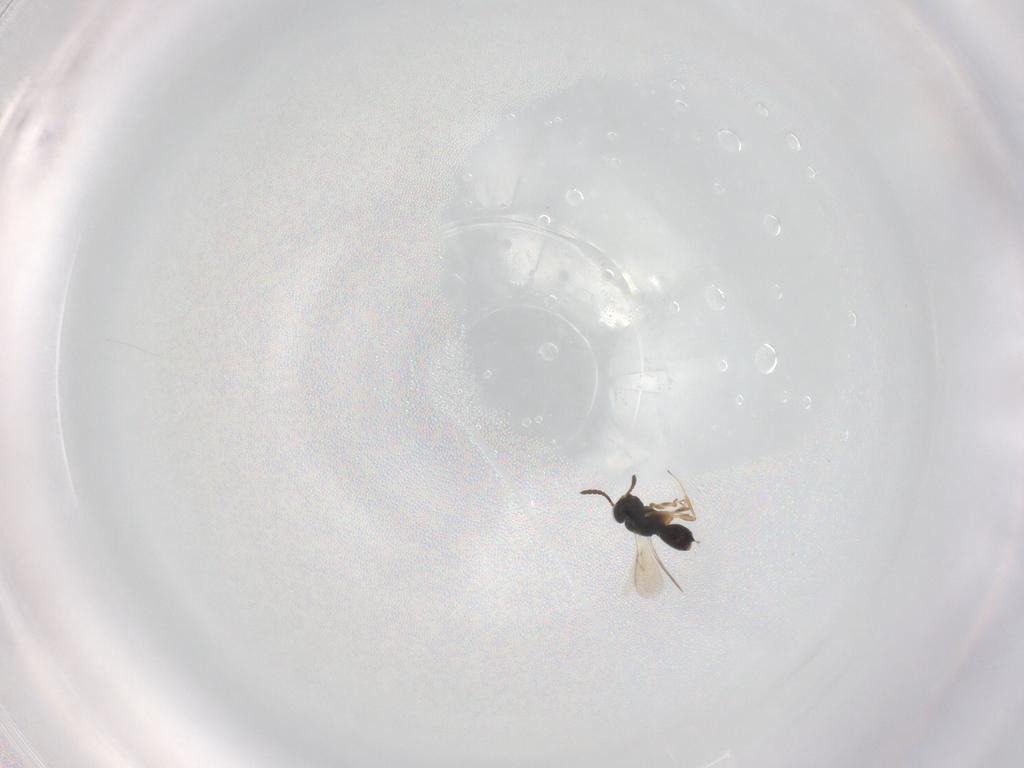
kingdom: Animalia
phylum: Arthropoda
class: Insecta
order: Hymenoptera
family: Scelionidae
